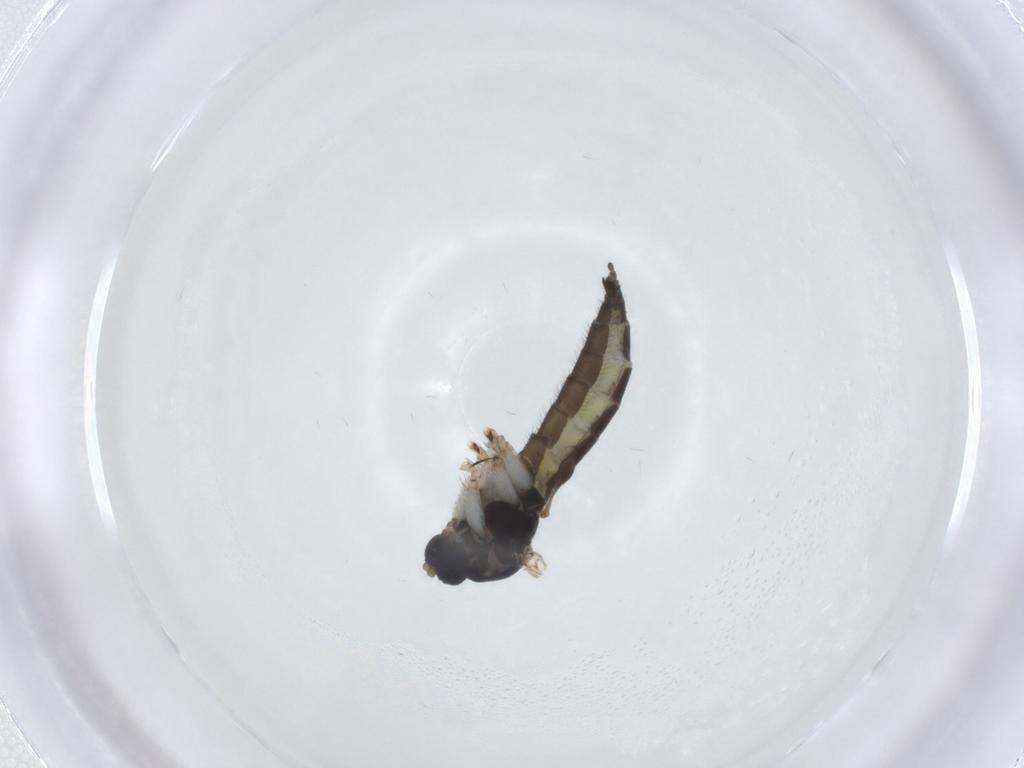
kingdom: Animalia
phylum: Arthropoda
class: Insecta
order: Diptera
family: Sciaridae
